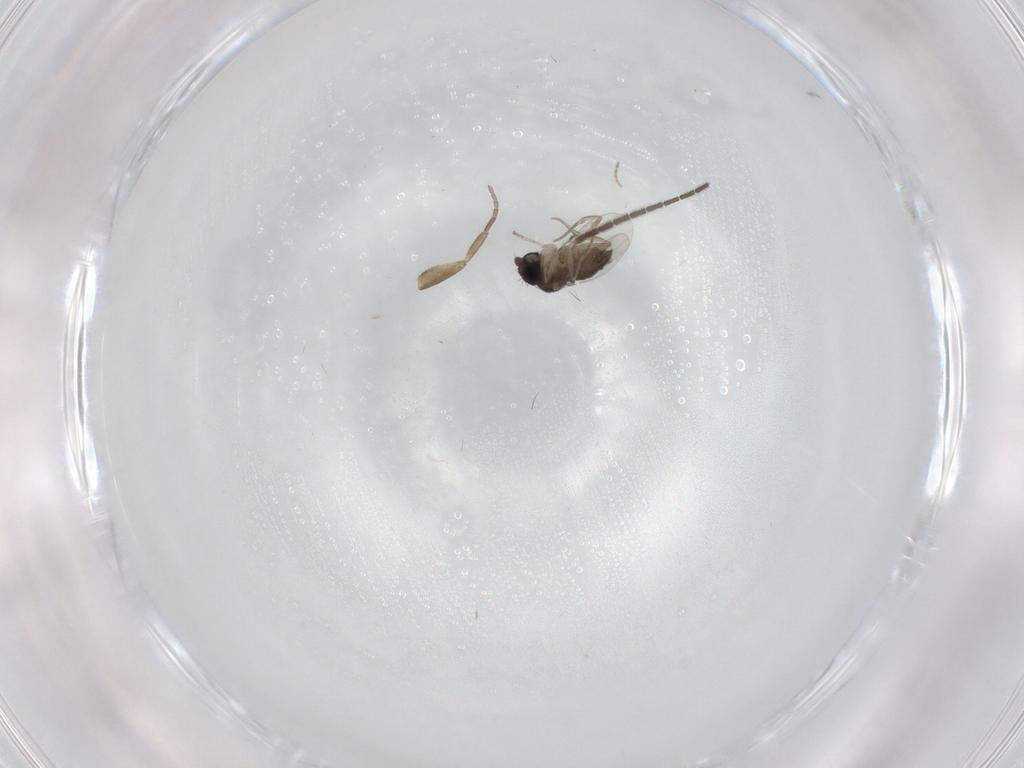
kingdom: Animalia
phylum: Arthropoda
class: Insecta
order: Diptera
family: Phoridae
